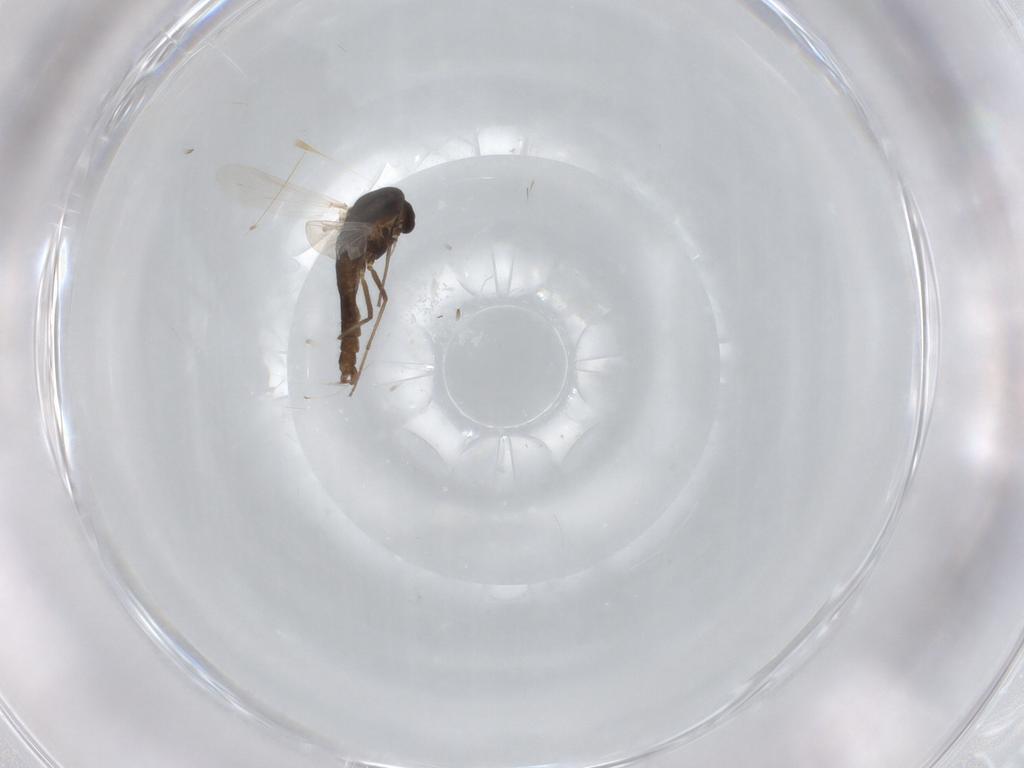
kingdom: Animalia
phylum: Arthropoda
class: Insecta
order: Diptera
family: Chironomidae
